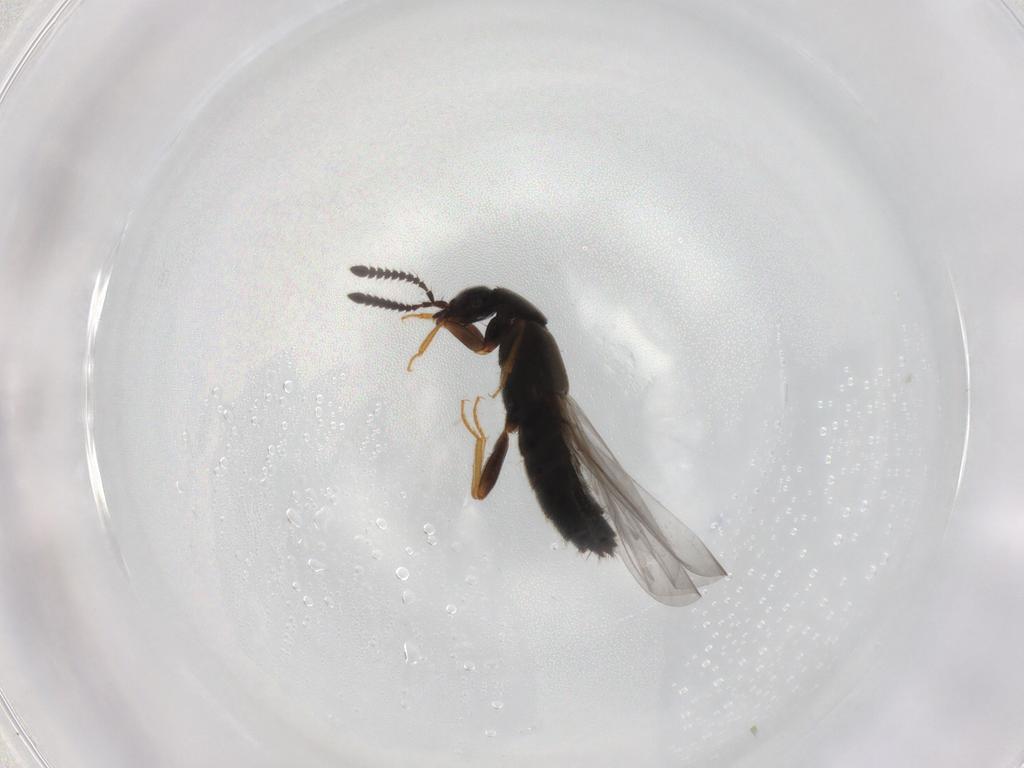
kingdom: Animalia
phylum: Arthropoda
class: Insecta
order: Coleoptera
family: Staphylinidae
